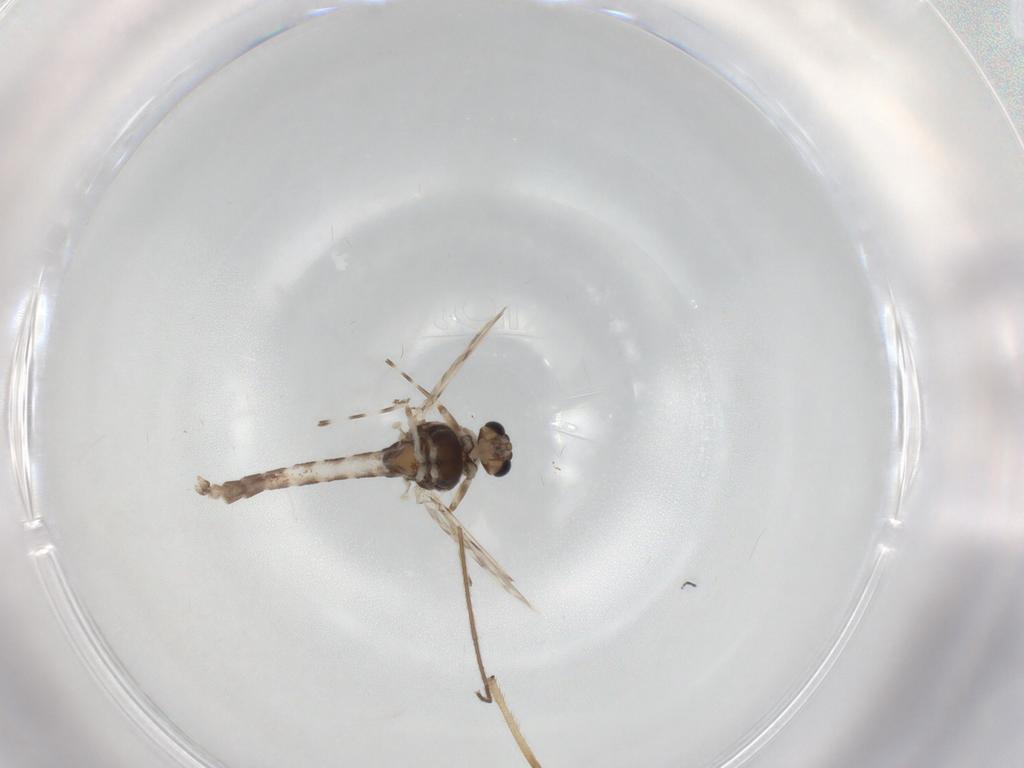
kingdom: Animalia
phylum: Arthropoda
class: Insecta
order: Diptera
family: Chironomidae
